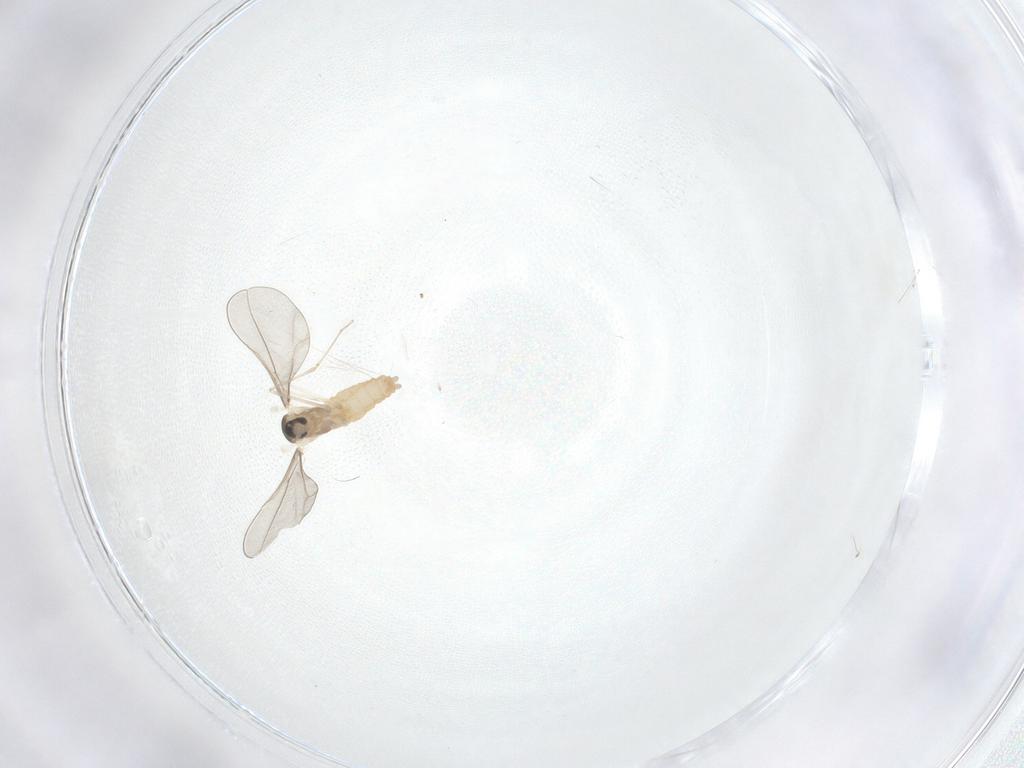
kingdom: Animalia
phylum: Arthropoda
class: Insecta
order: Diptera
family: Cecidomyiidae
